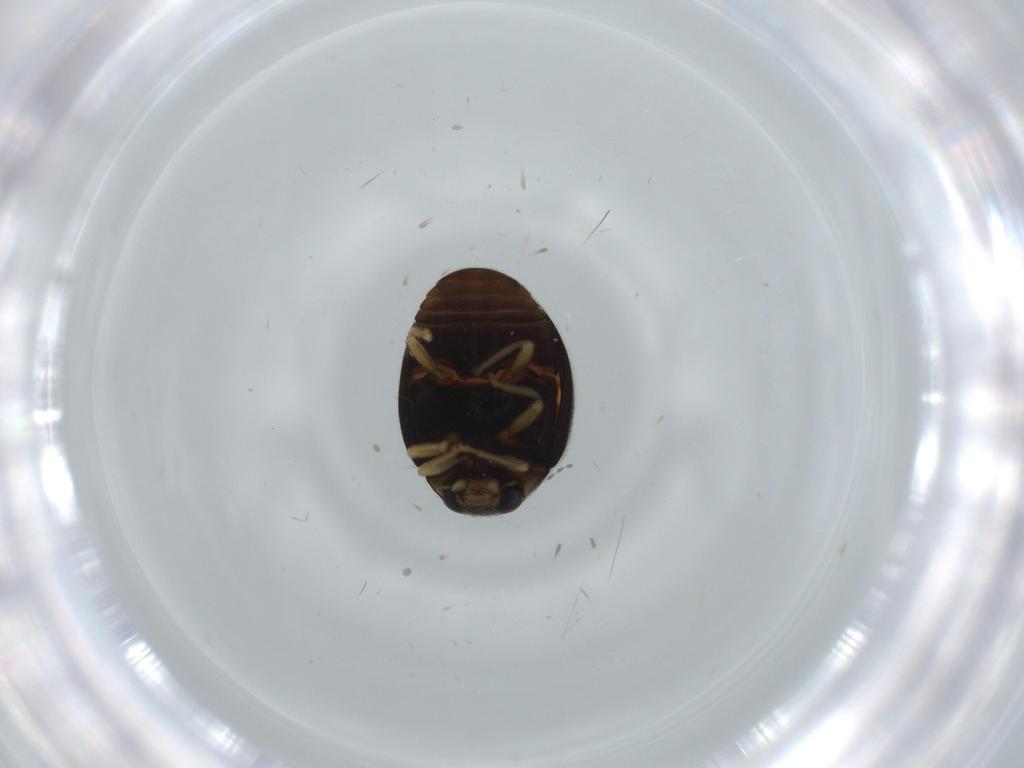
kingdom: Animalia
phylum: Arthropoda
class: Insecta
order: Coleoptera
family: Coccinellidae
